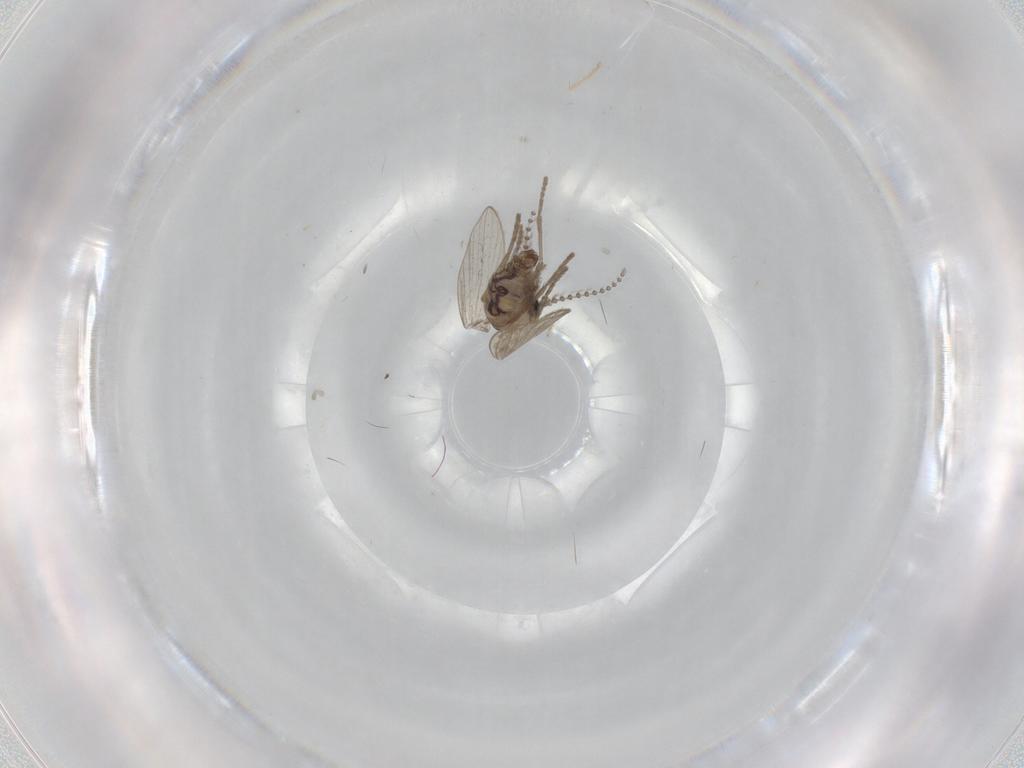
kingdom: Animalia
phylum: Arthropoda
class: Insecta
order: Diptera
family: Psychodidae
